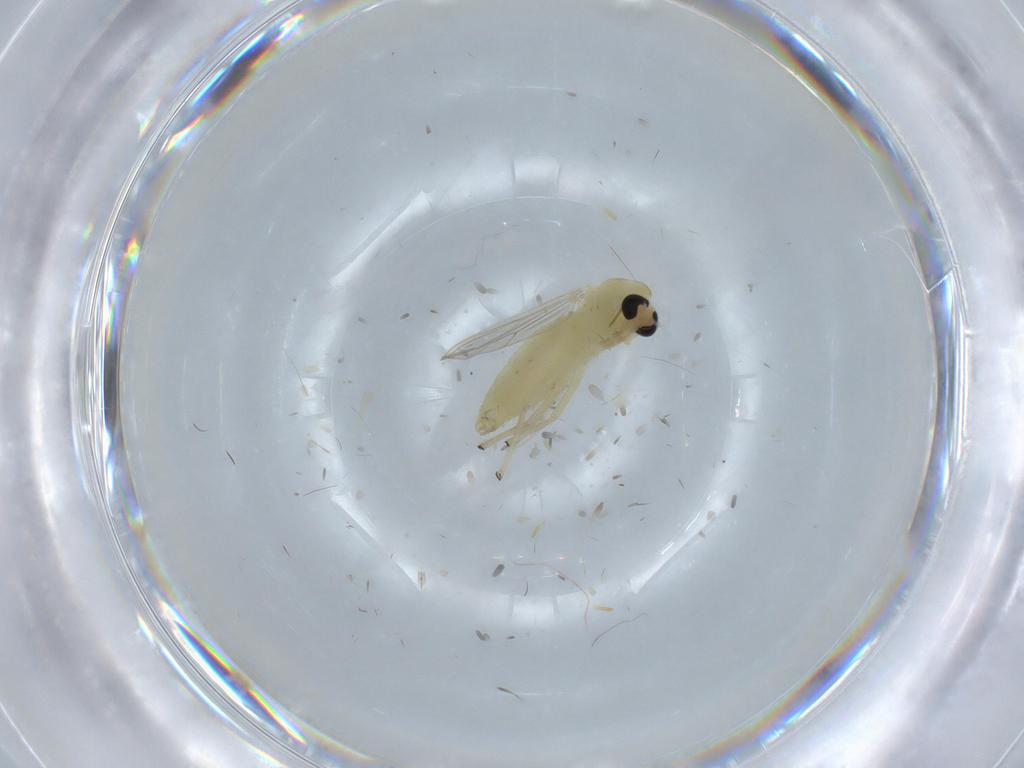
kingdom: Animalia
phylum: Arthropoda
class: Insecta
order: Diptera
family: Chironomidae
